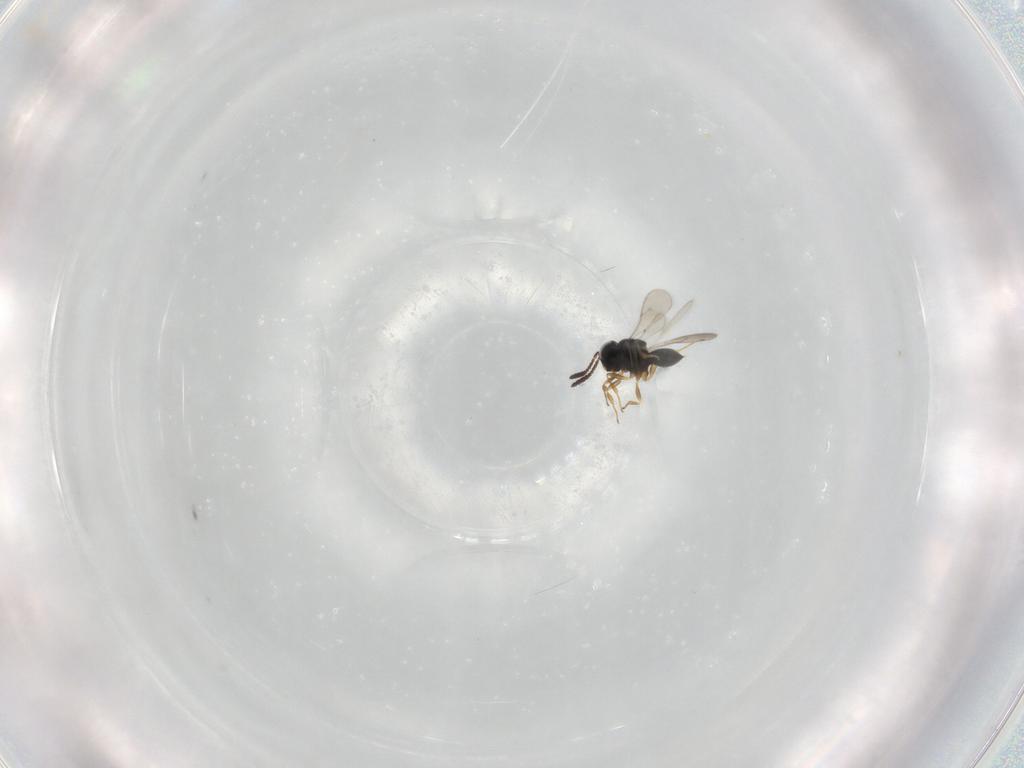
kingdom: Animalia
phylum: Arthropoda
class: Insecta
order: Hymenoptera
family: Scelionidae
